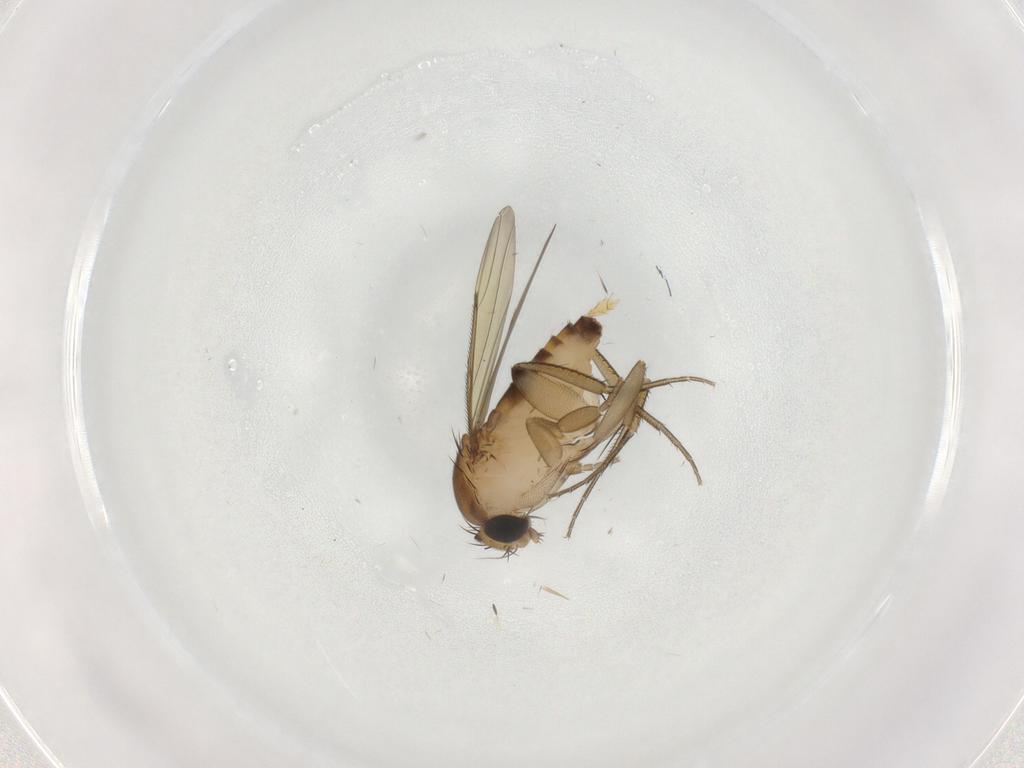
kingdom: Animalia
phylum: Arthropoda
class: Insecta
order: Diptera
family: Phoridae
